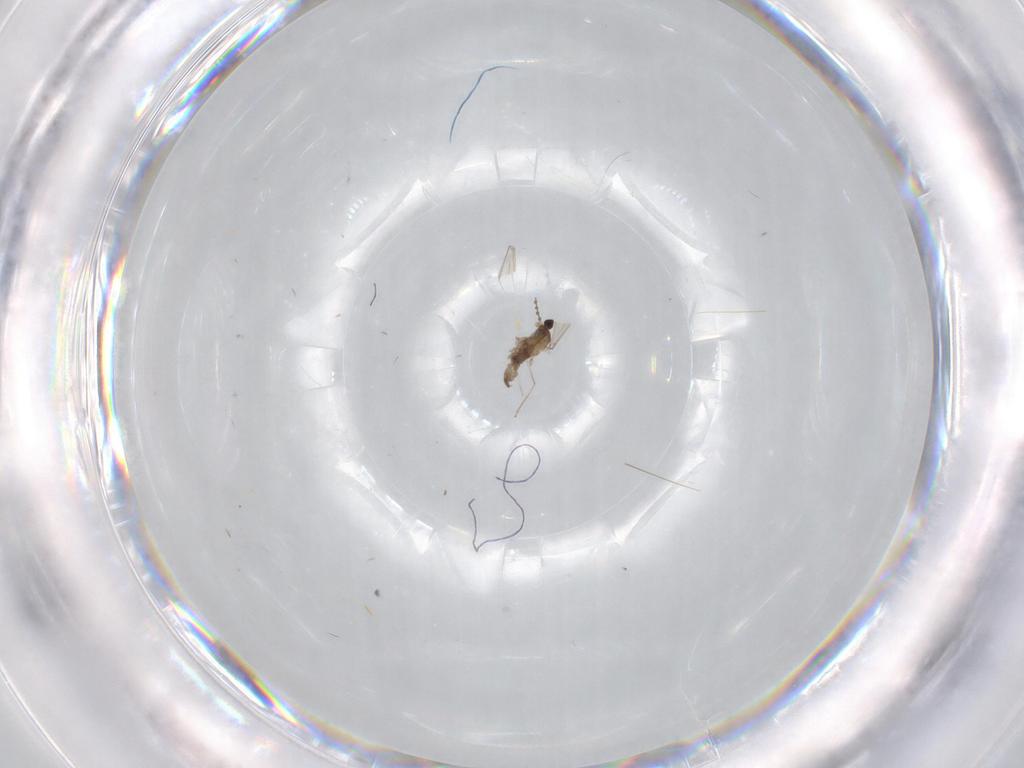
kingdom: Animalia
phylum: Arthropoda
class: Insecta
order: Diptera
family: Cecidomyiidae
